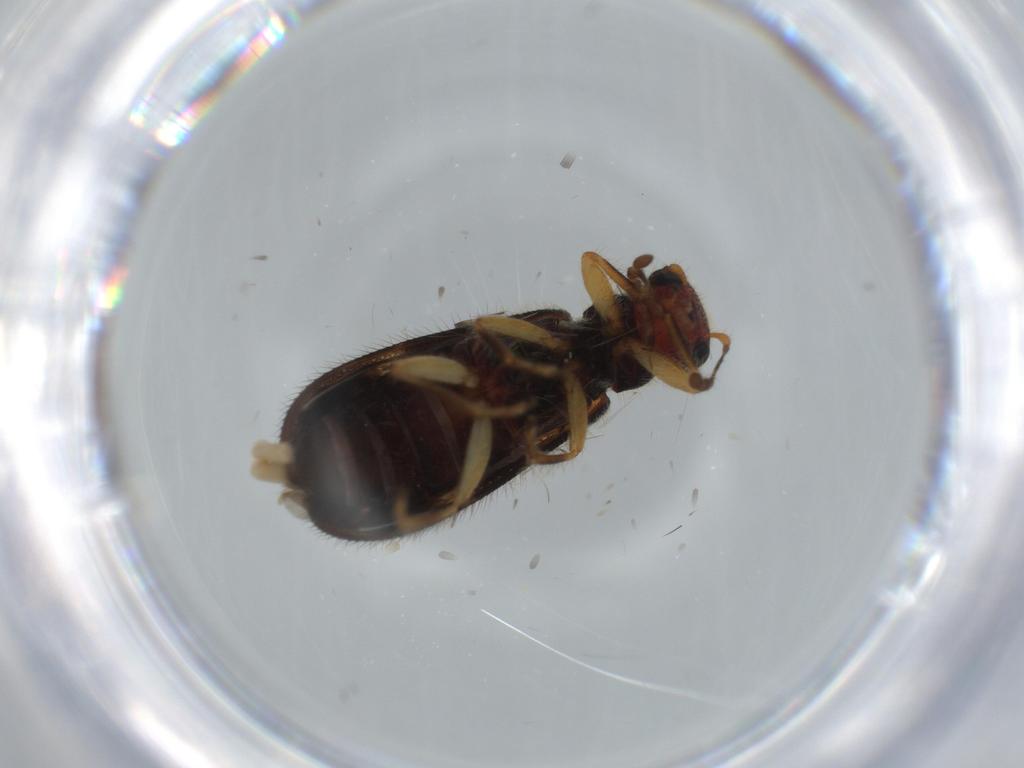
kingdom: Animalia
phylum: Arthropoda
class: Insecta
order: Coleoptera
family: Cleridae
